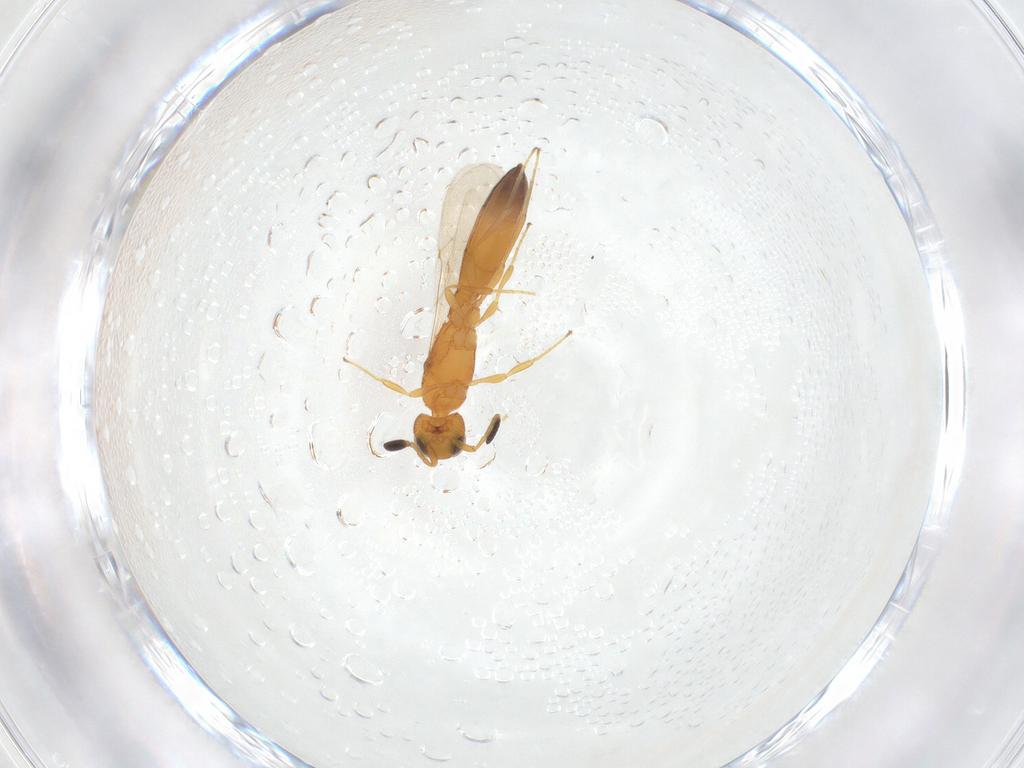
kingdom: Animalia
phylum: Arthropoda
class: Insecta
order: Hymenoptera
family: Scelionidae
